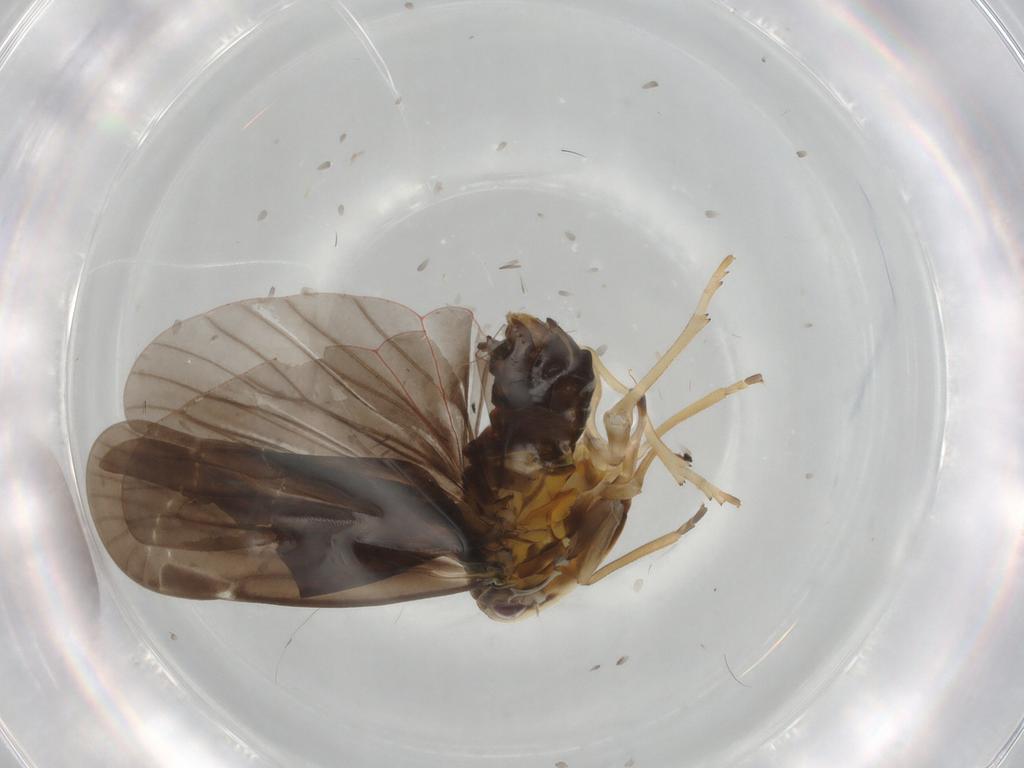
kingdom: Animalia
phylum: Arthropoda
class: Insecta
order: Hemiptera
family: Derbidae
